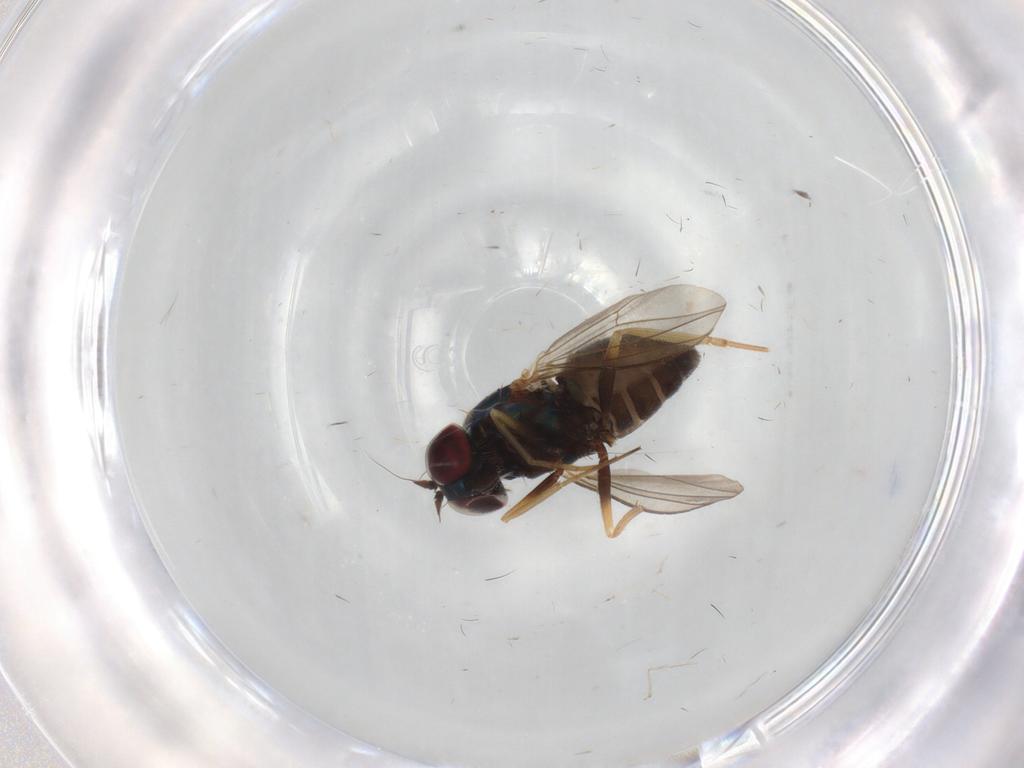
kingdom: Animalia
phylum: Arthropoda
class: Insecta
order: Diptera
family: Dolichopodidae
